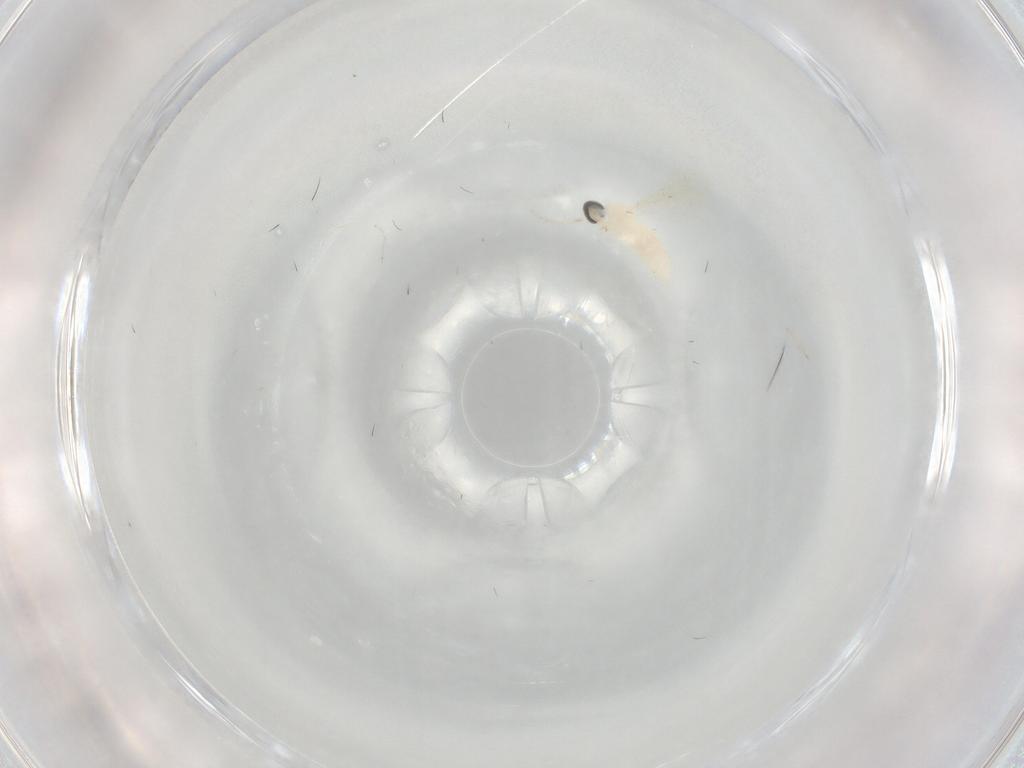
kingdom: Animalia
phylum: Arthropoda
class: Insecta
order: Diptera
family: Cecidomyiidae
